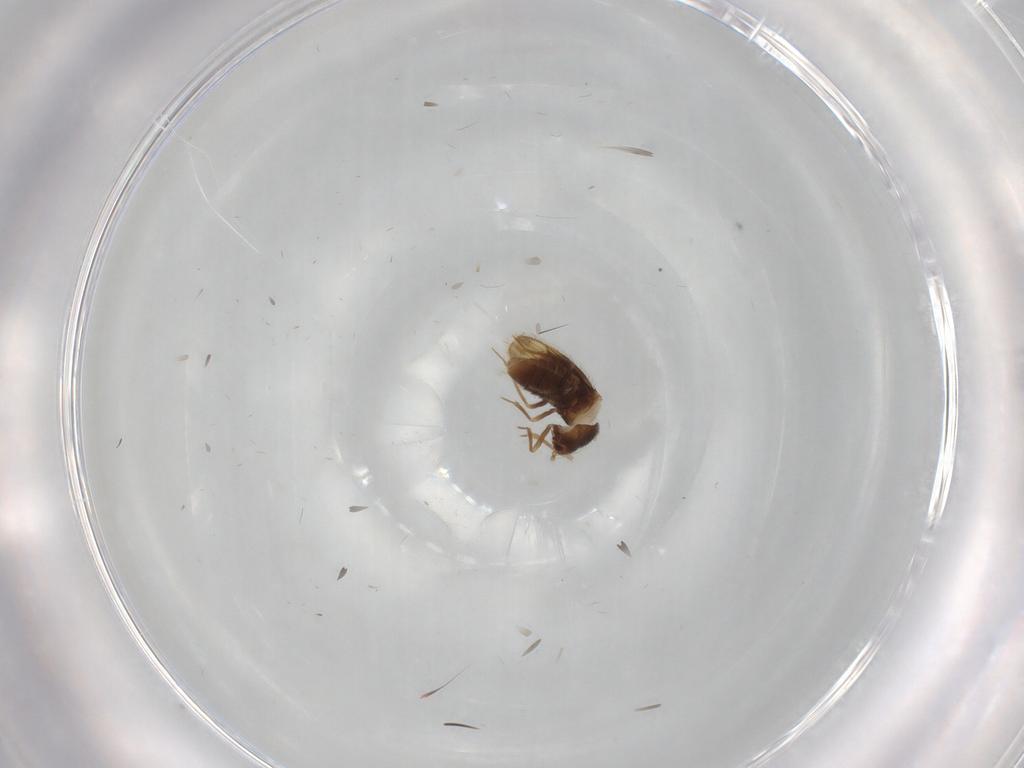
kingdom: Animalia
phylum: Arthropoda
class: Insecta
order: Hemiptera
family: Schizopteridae
